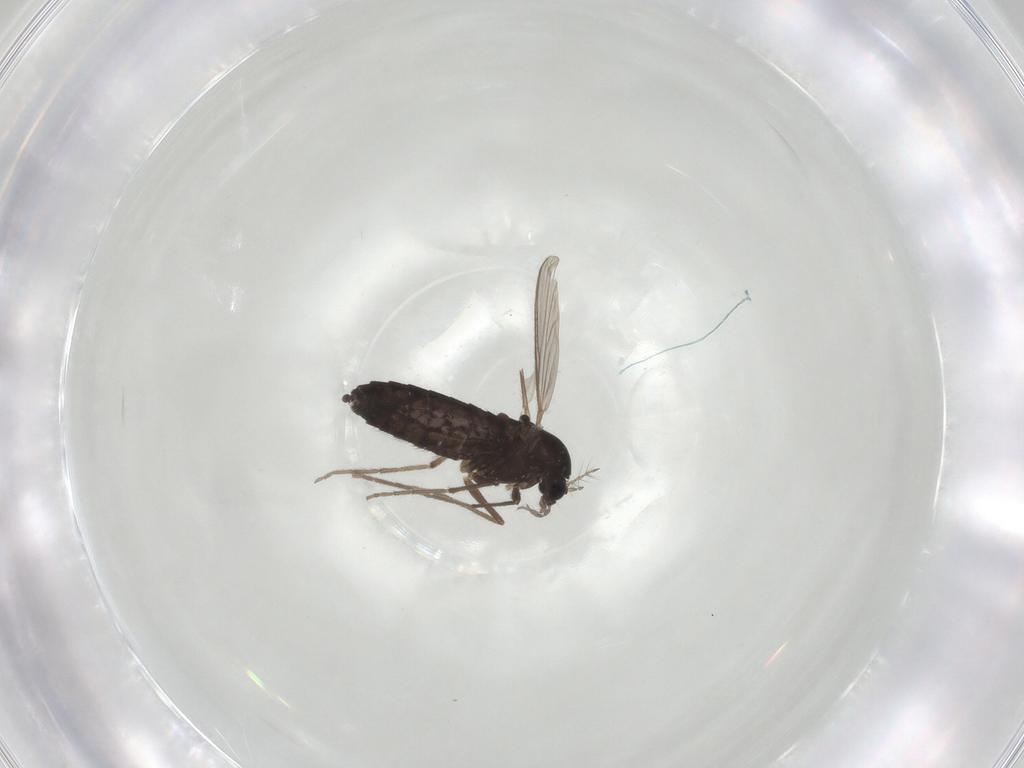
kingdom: Animalia
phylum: Arthropoda
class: Insecta
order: Diptera
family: Chironomidae
